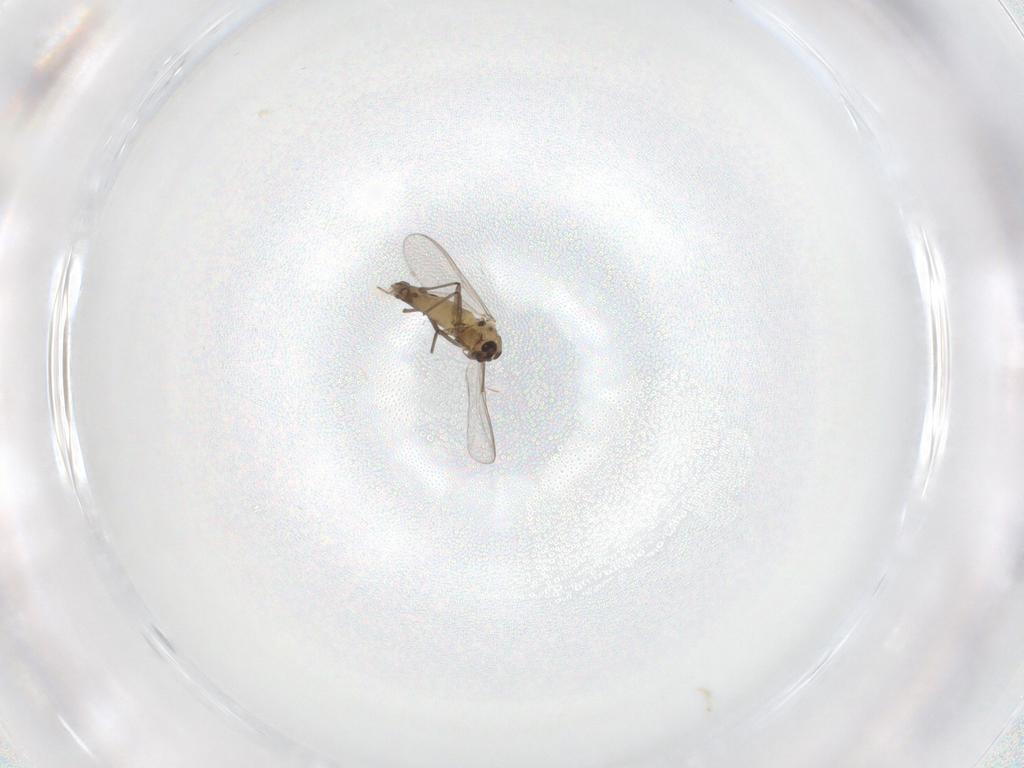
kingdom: Animalia
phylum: Arthropoda
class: Insecta
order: Diptera
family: Chironomidae
